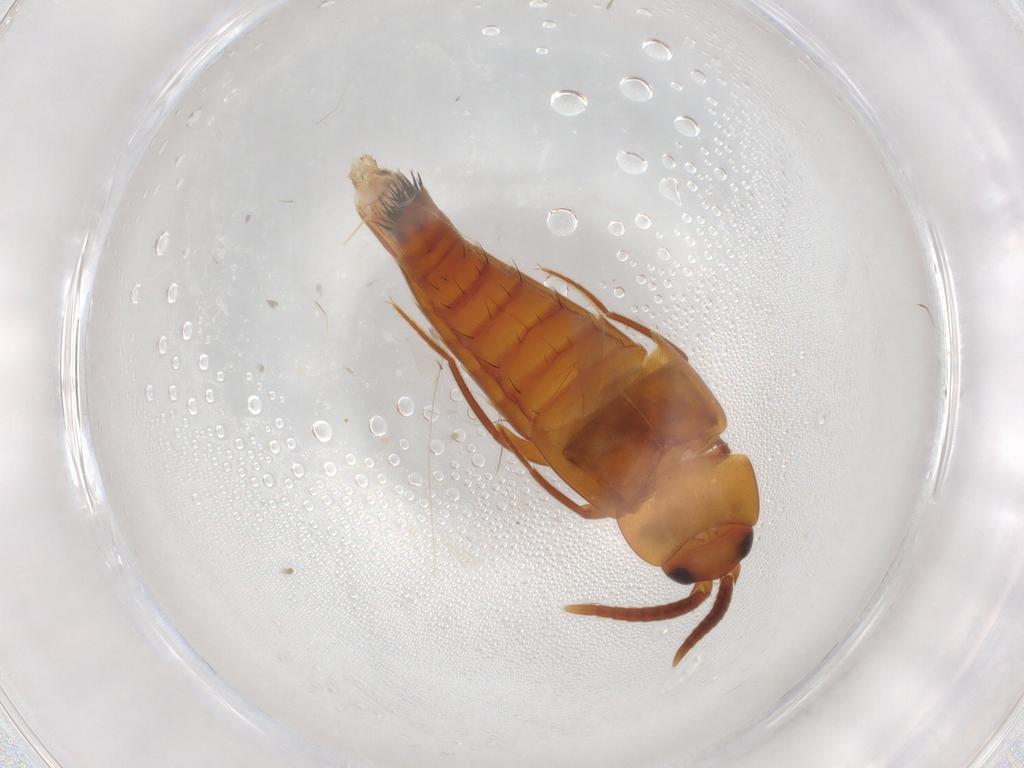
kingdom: Animalia
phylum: Arthropoda
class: Insecta
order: Coleoptera
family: Staphylinidae
